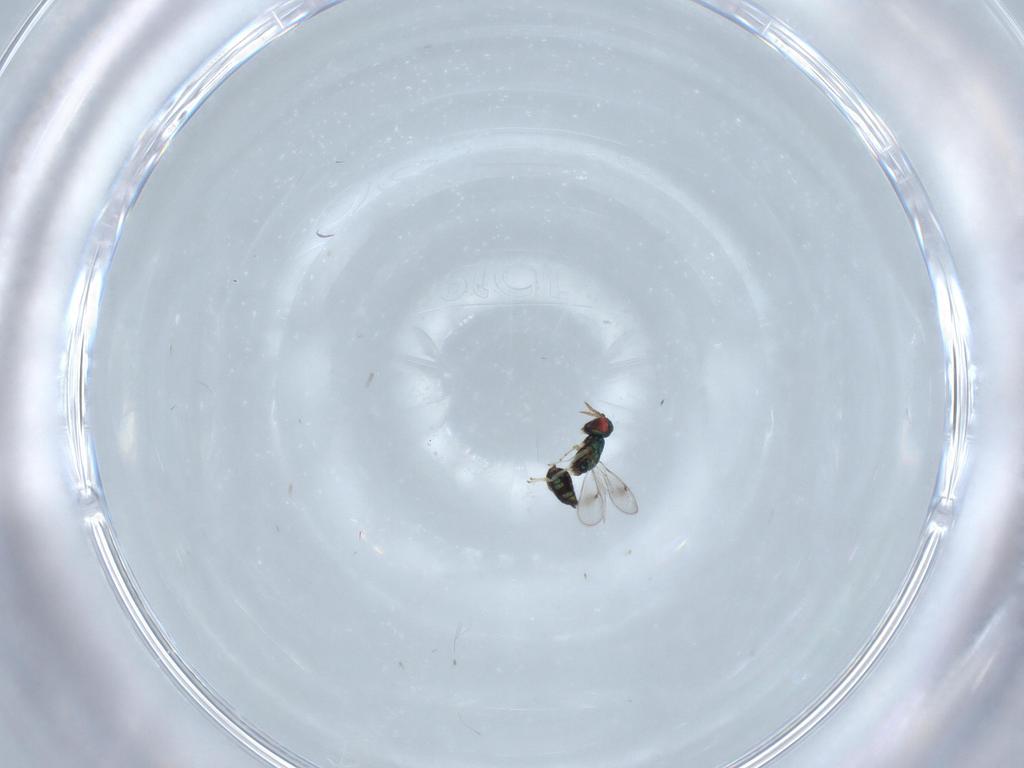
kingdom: Animalia
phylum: Arthropoda
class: Insecta
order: Hymenoptera
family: Eulophidae
